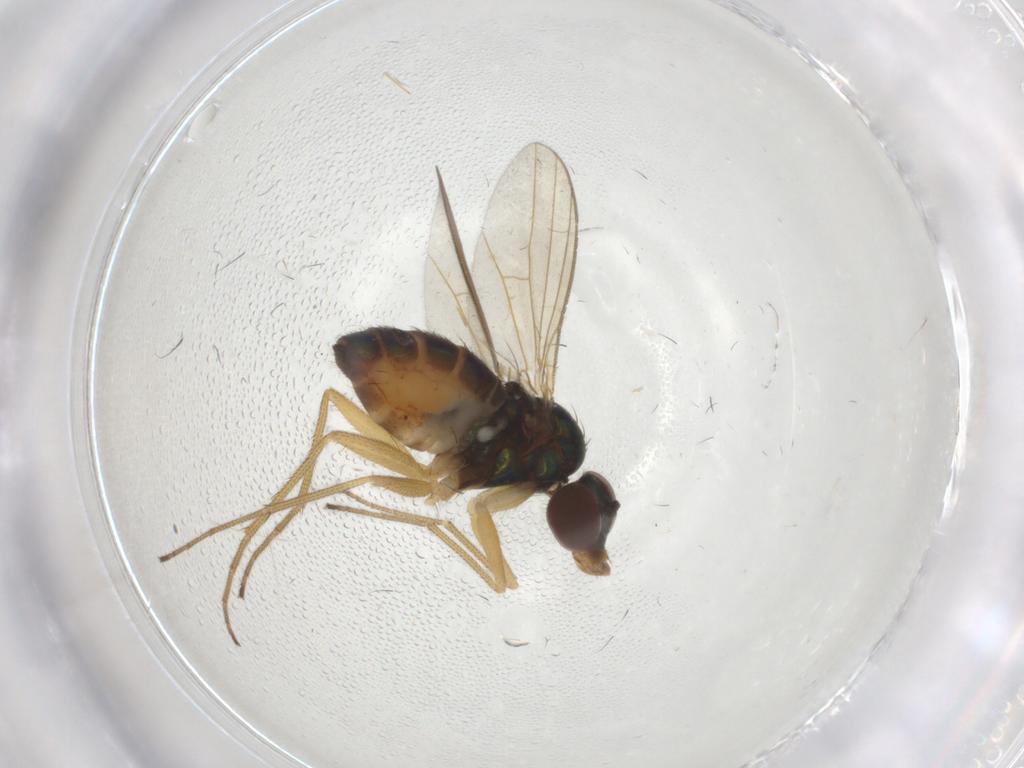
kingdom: Animalia
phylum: Arthropoda
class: Insecta
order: Diptera
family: Dolichopodidae
